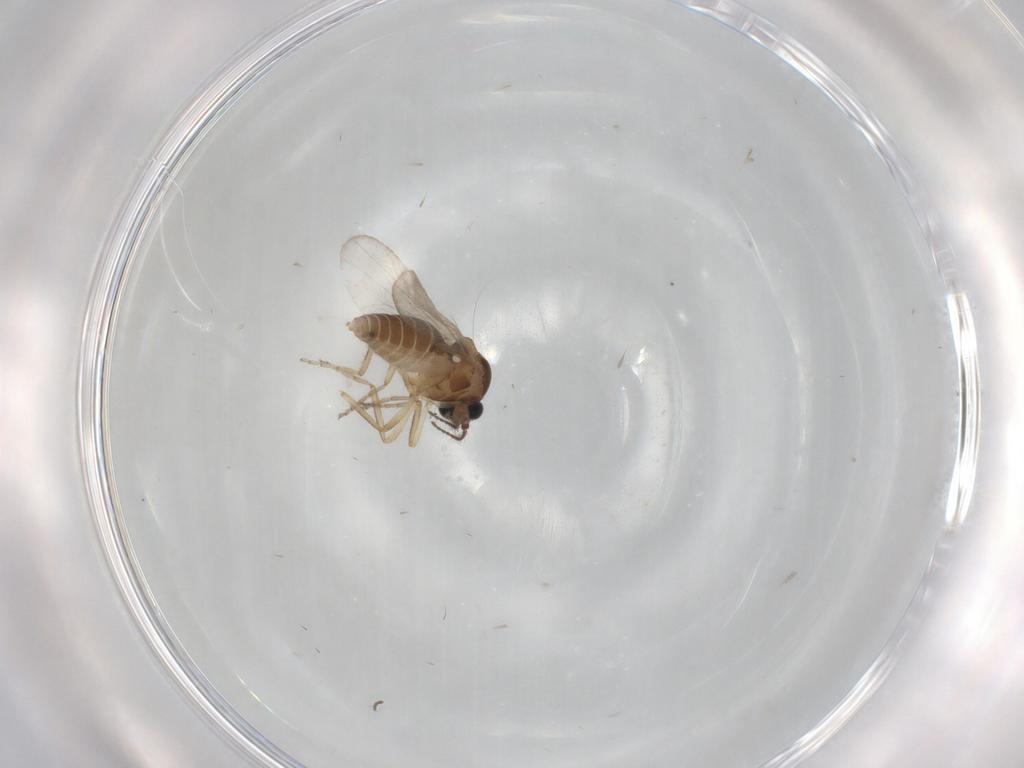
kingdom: Animalia
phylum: Arthropoda
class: Insecta
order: Diptera
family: Sciaridae
